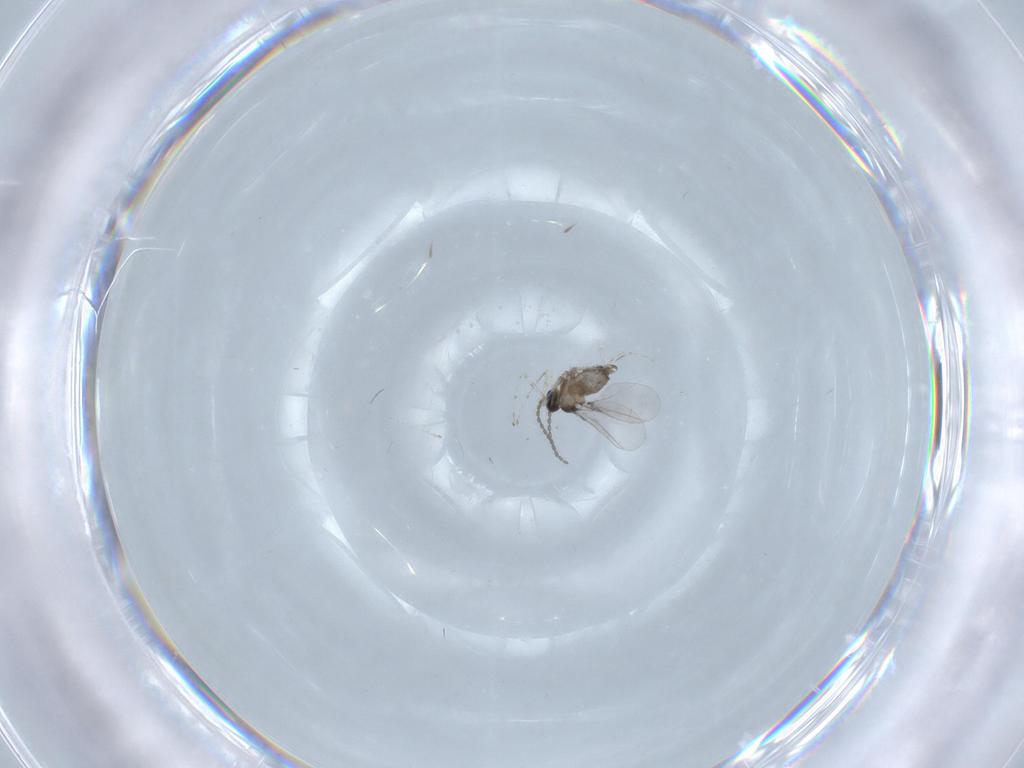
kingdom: Animalia
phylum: Arthropoda
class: Insecta
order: Diptera
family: Cecidomyiidae
